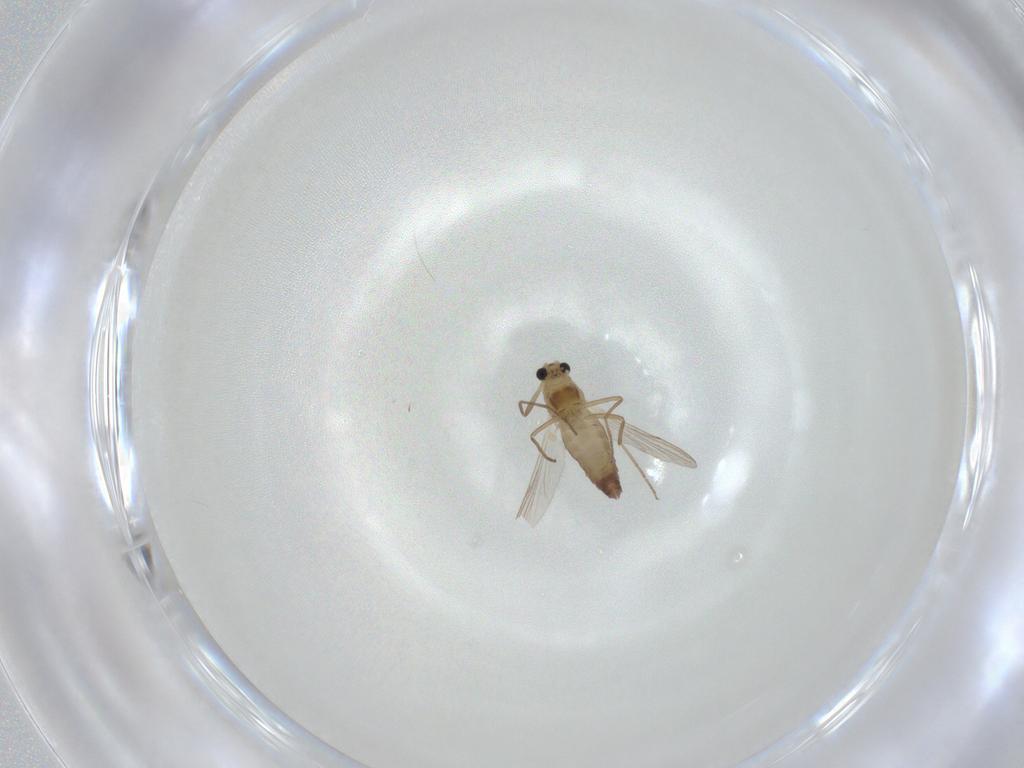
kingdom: Animalia
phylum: Arthropoda
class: Insecta
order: Diptera
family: Chironomidae
